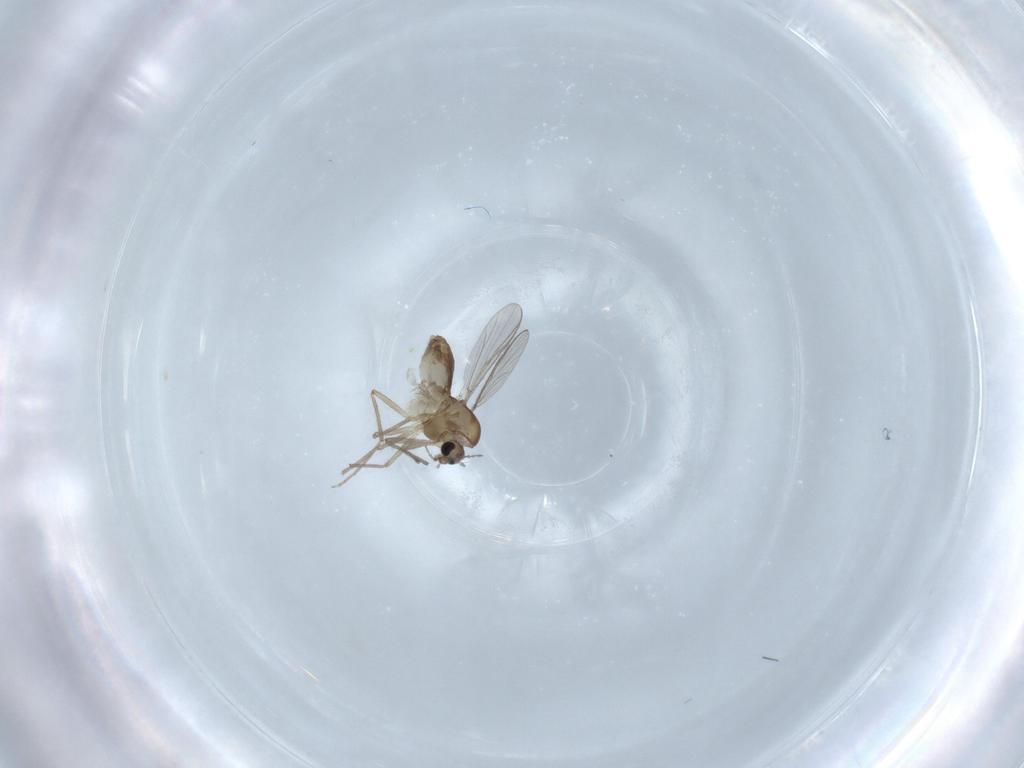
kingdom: Animalia
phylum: Arthropoda
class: Insecta
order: Diptera
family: Chironomidae
